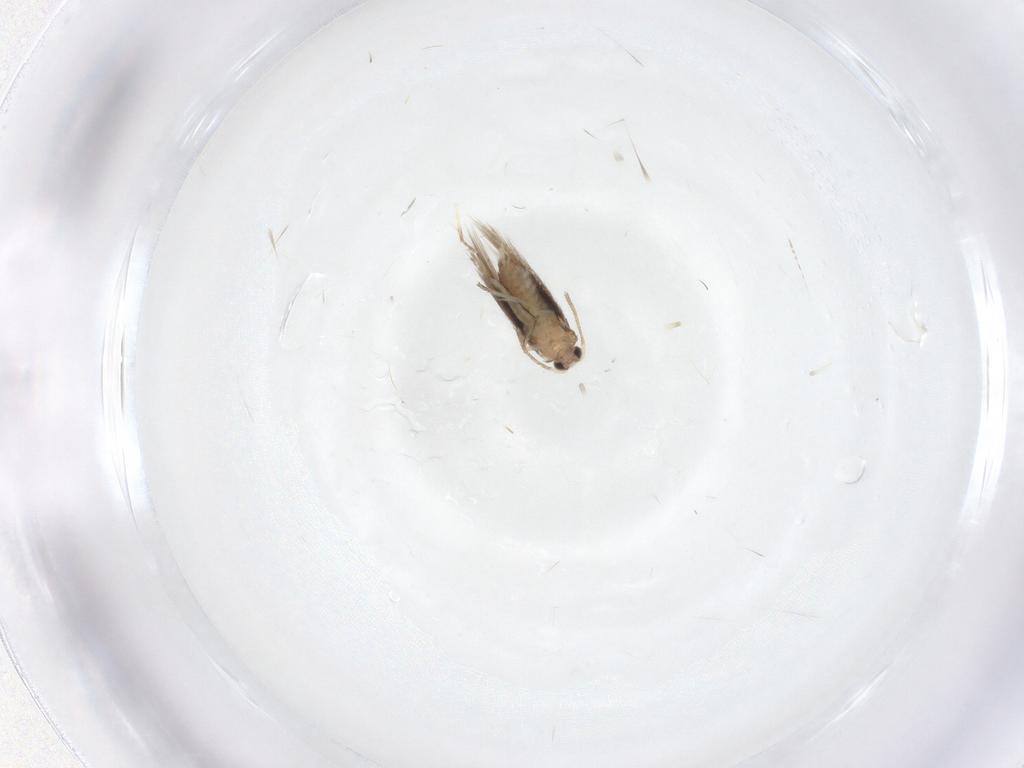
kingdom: Animalia
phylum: Arthropoda
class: Insecta
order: Lepidoptera
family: Nepticulidae
